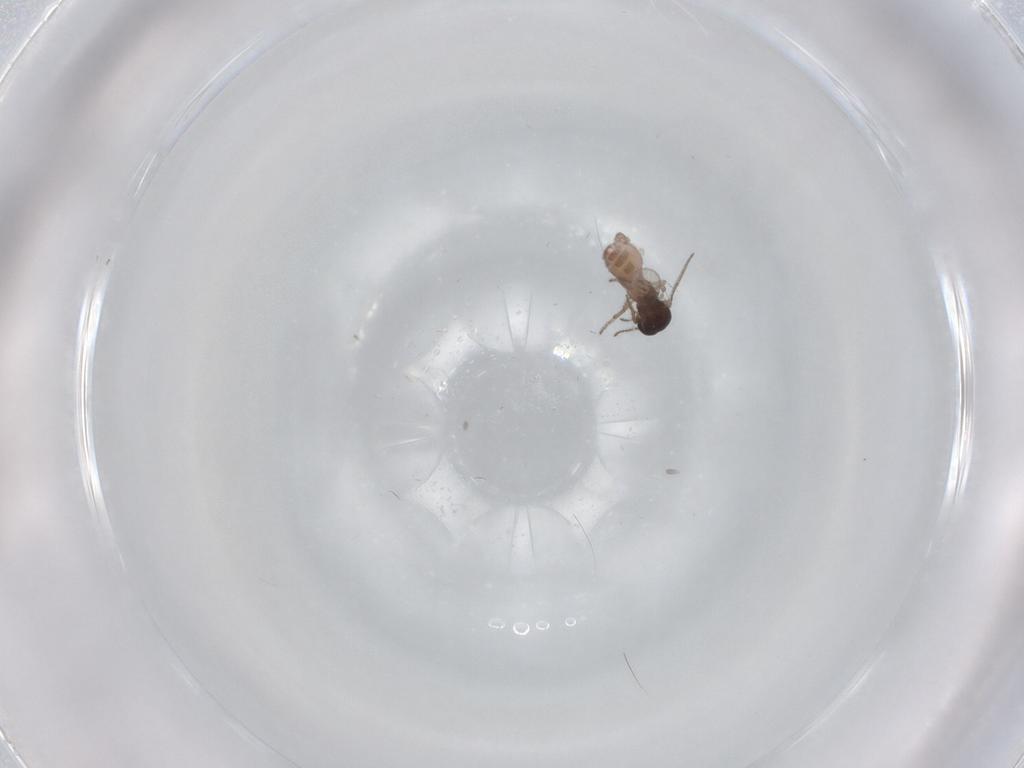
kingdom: Animalia
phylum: Arthropoda
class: Insecta
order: Diptera
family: Ceratopogonidae
